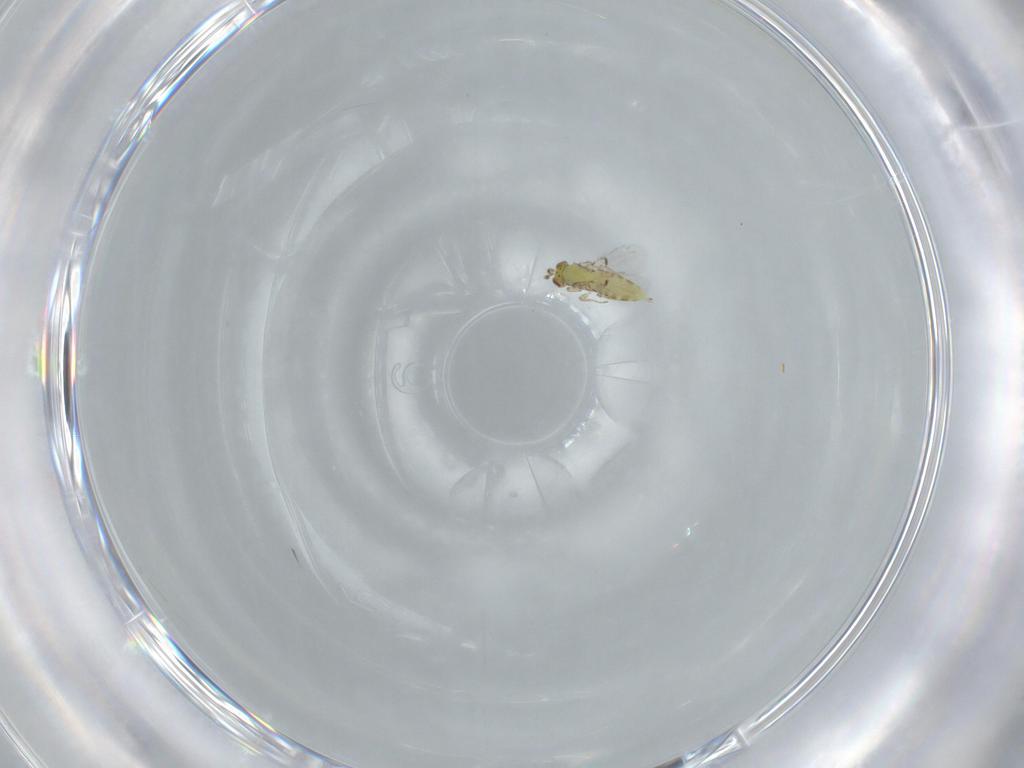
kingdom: Animalia
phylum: Arthropoda
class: Insecta
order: Hymenoptera
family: Trichogrammatidae
